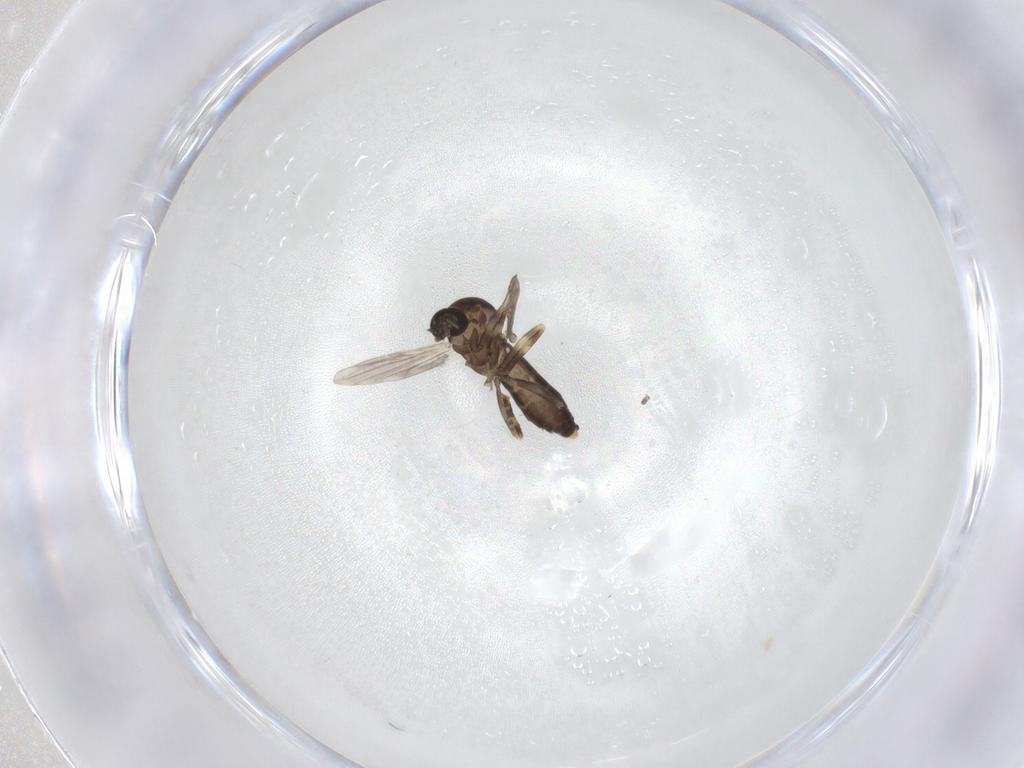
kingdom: Animalia
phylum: Arthropoda
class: Insecta
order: Diptera
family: Ceratopogonidae
